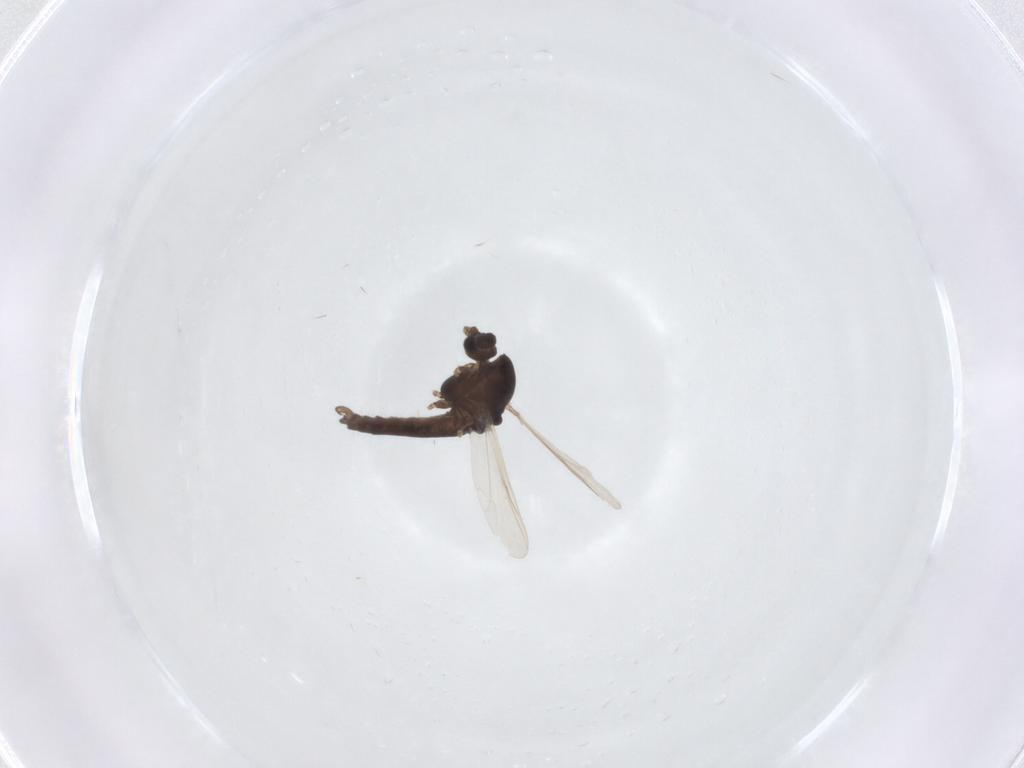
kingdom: Animalia
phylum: Arthropoda
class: Insecta
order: Diptera
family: Chironomidae
